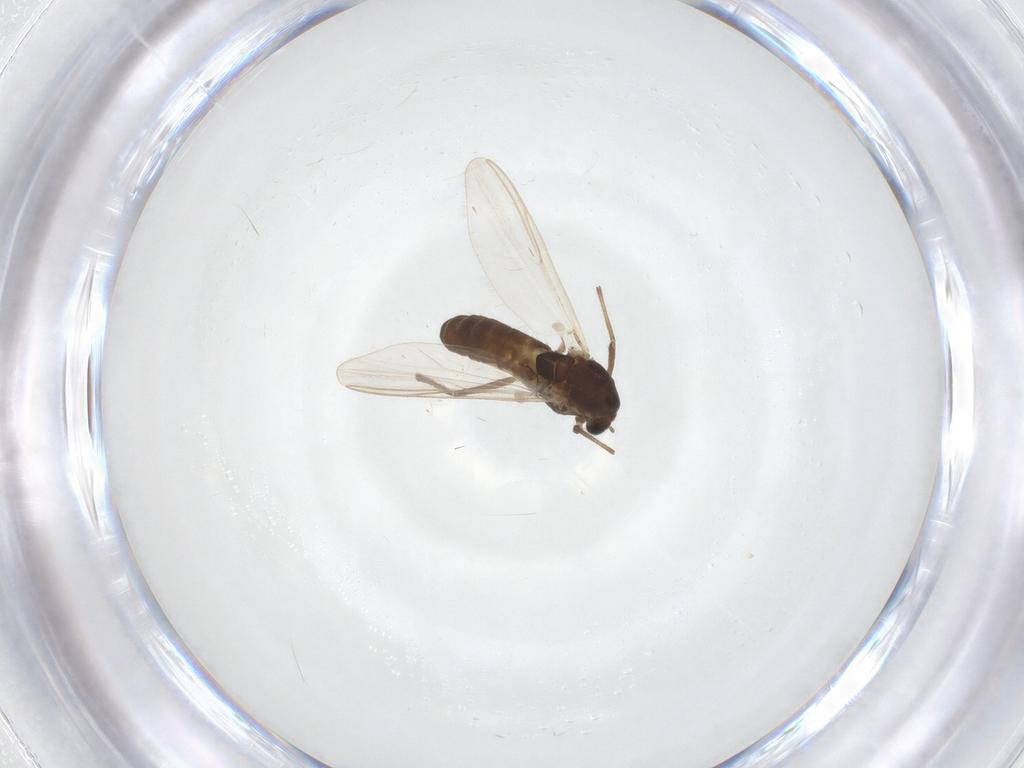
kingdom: Animalia
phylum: Arthropoda
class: Insecta
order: Diptera
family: Chironomidae
